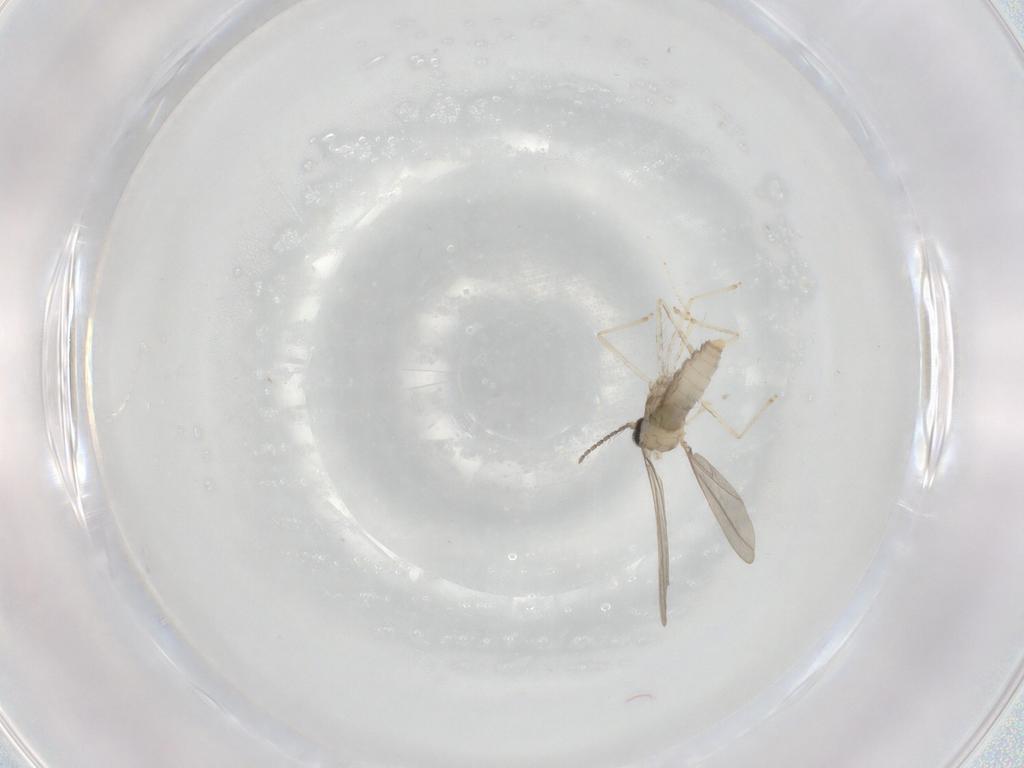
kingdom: Animalia
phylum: Arthropoda
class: Insecta
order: Diptera
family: Cecidomyiidae
